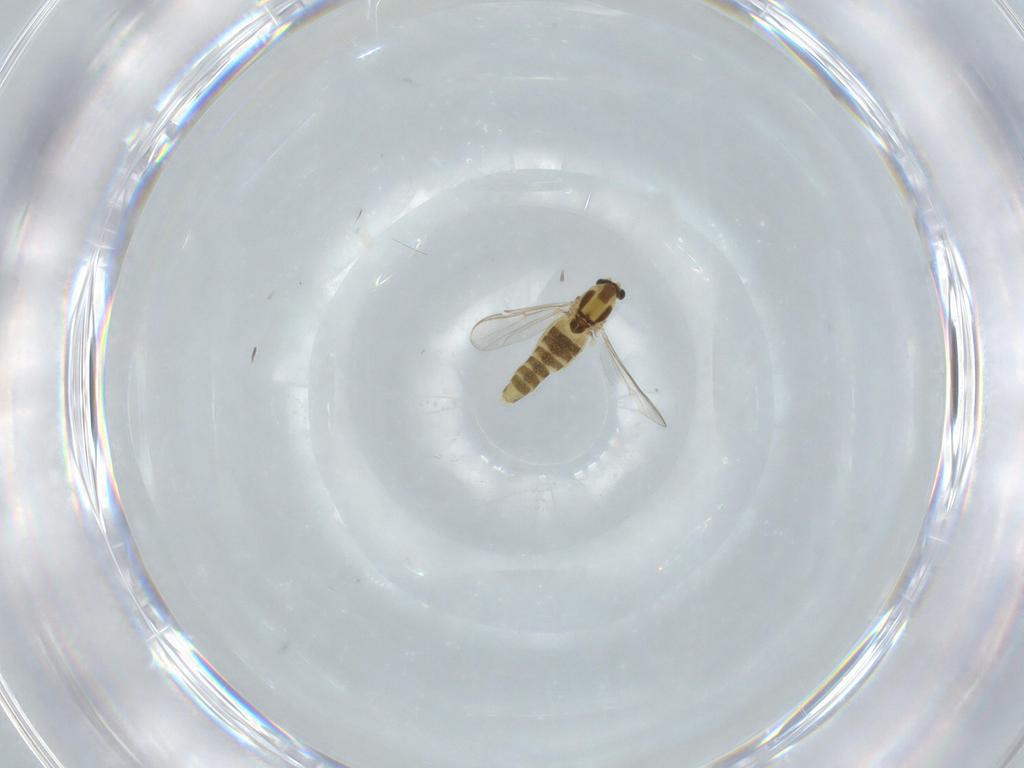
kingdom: Animalia
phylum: Arthropoda
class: Insecta
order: Diptera
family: Chironomidae
